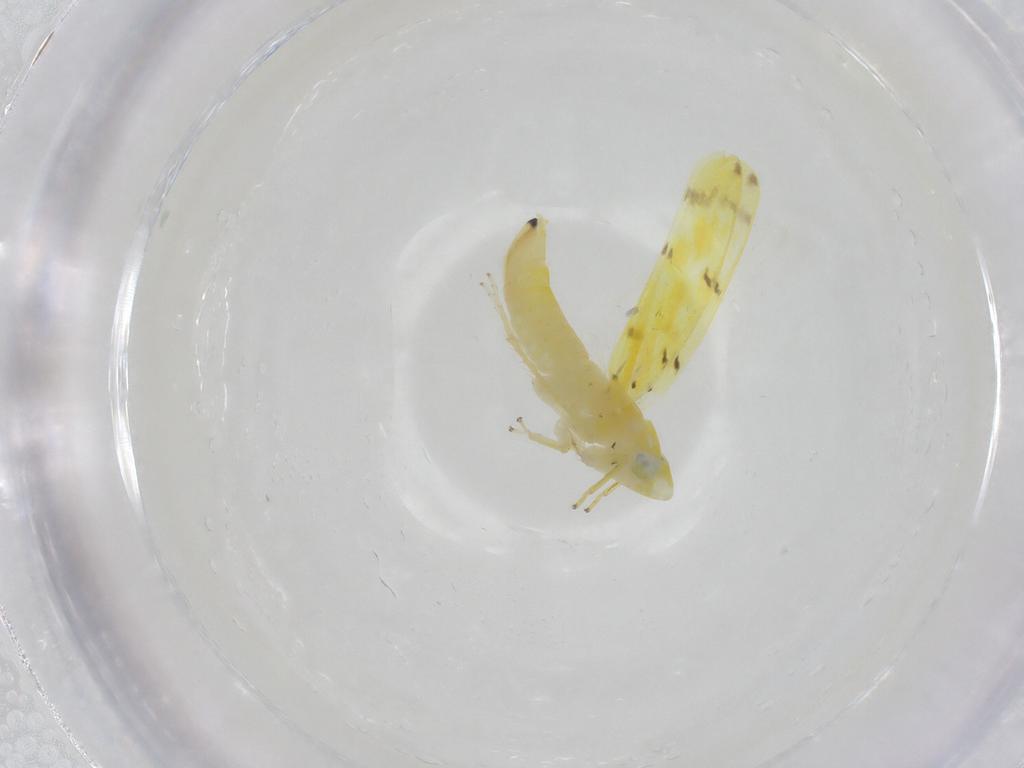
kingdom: Animalia
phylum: Arthropoda
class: Insecta
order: Hemiptera
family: Cicadellidae
